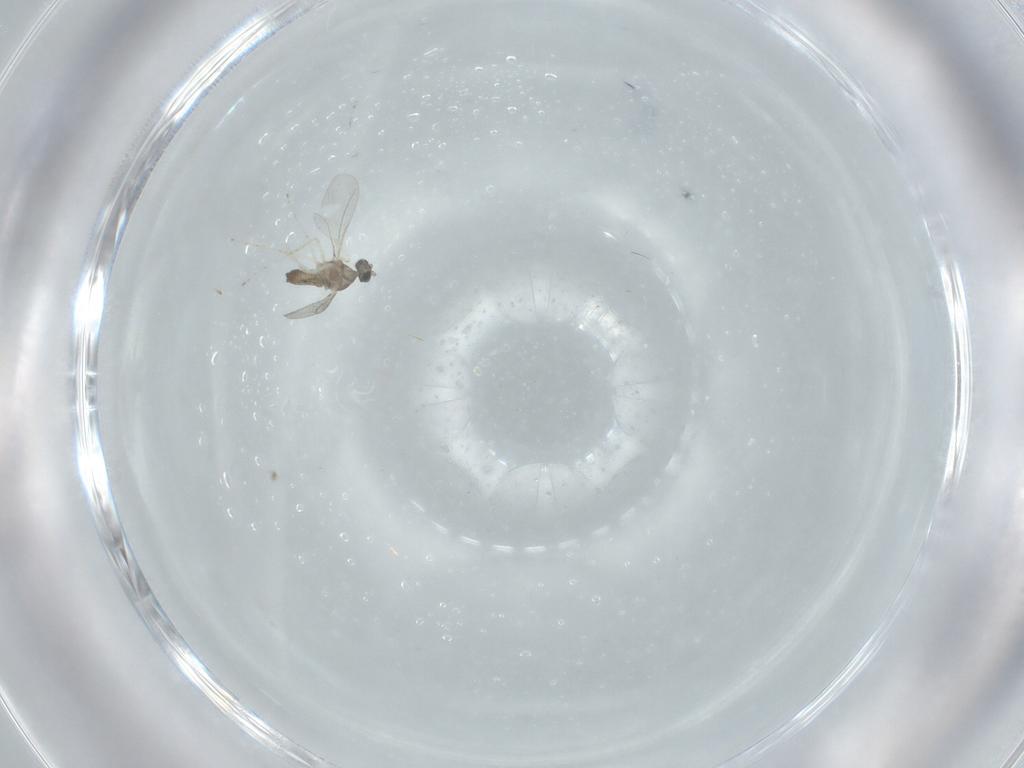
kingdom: Animalia
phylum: Arthropoda
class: Insecta
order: Diptera
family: Cecidomyiidae
